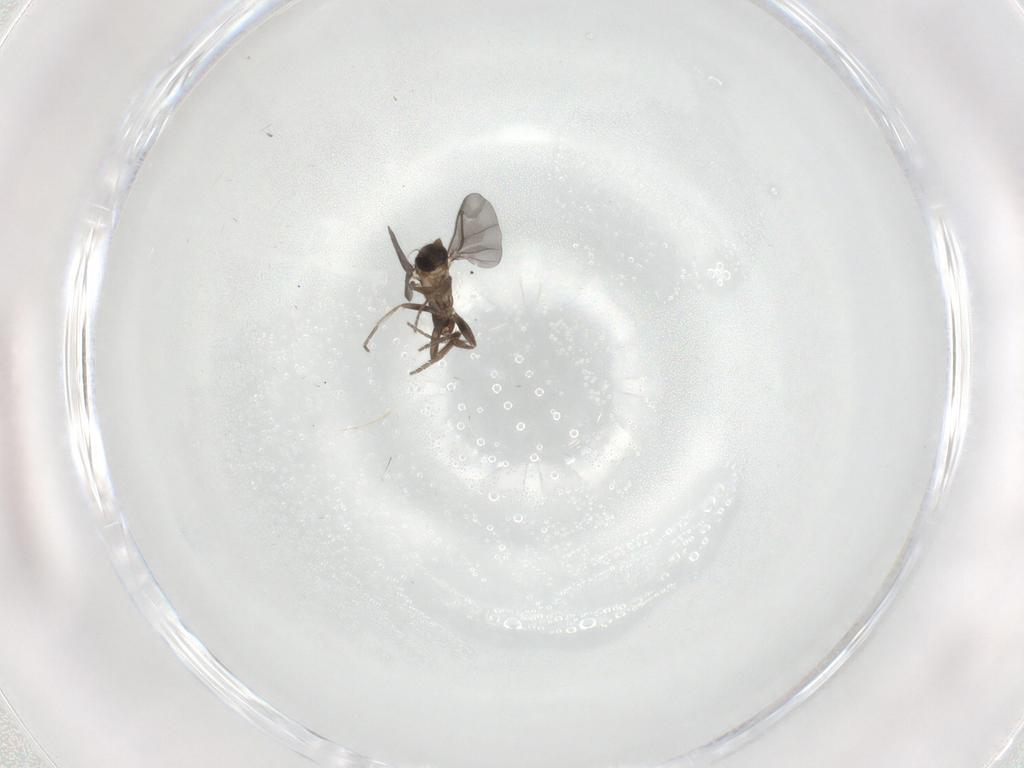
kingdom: Animalia
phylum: Arthropoda
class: Insecta
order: Diptera
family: Phoridae
